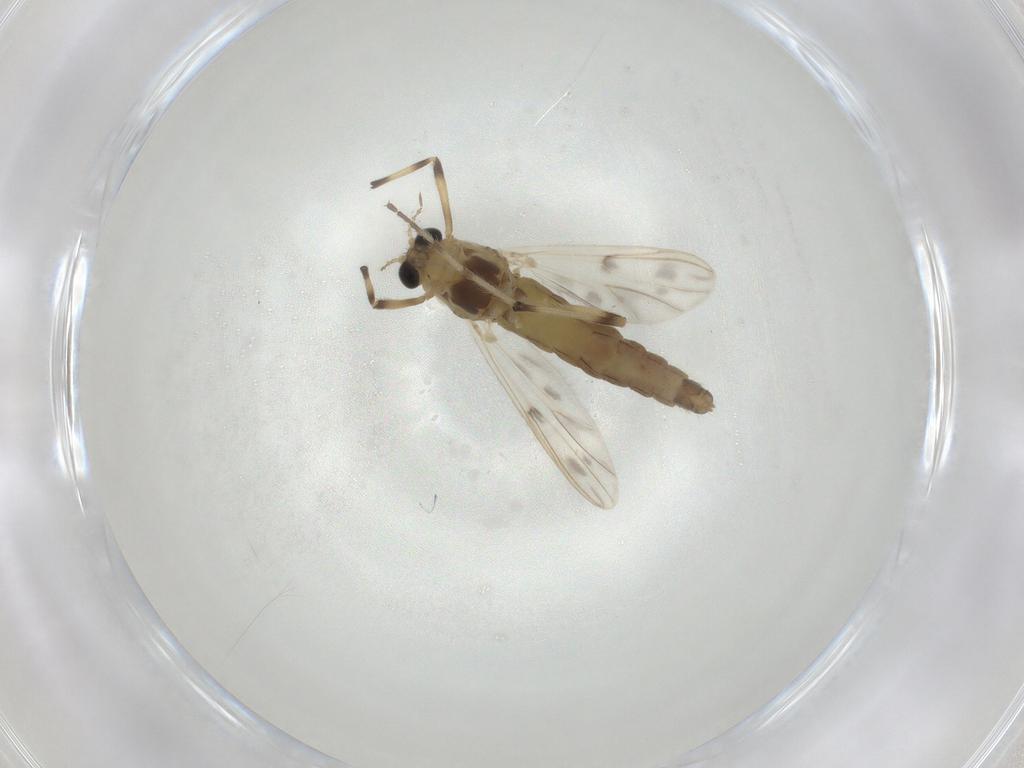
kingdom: Animalia
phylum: Arthropoda
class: Insecta
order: Diptera
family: Chironomidae
